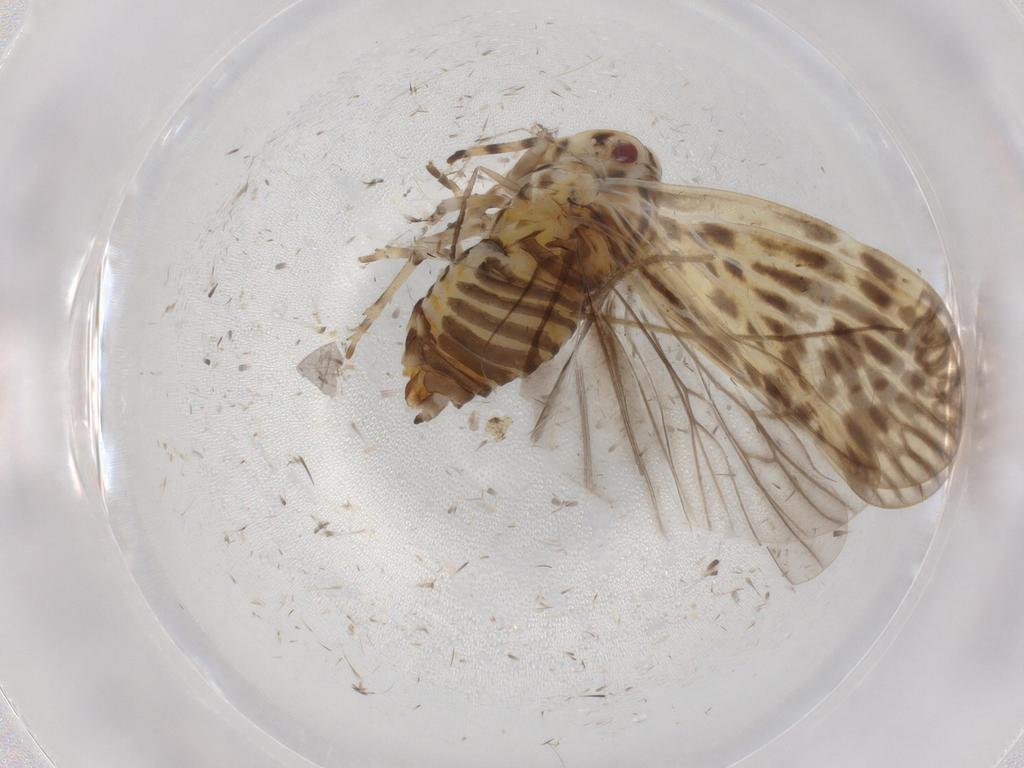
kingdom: Animalia
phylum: Arthropoda
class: Insecta
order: Hemiptera
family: Derbidae
